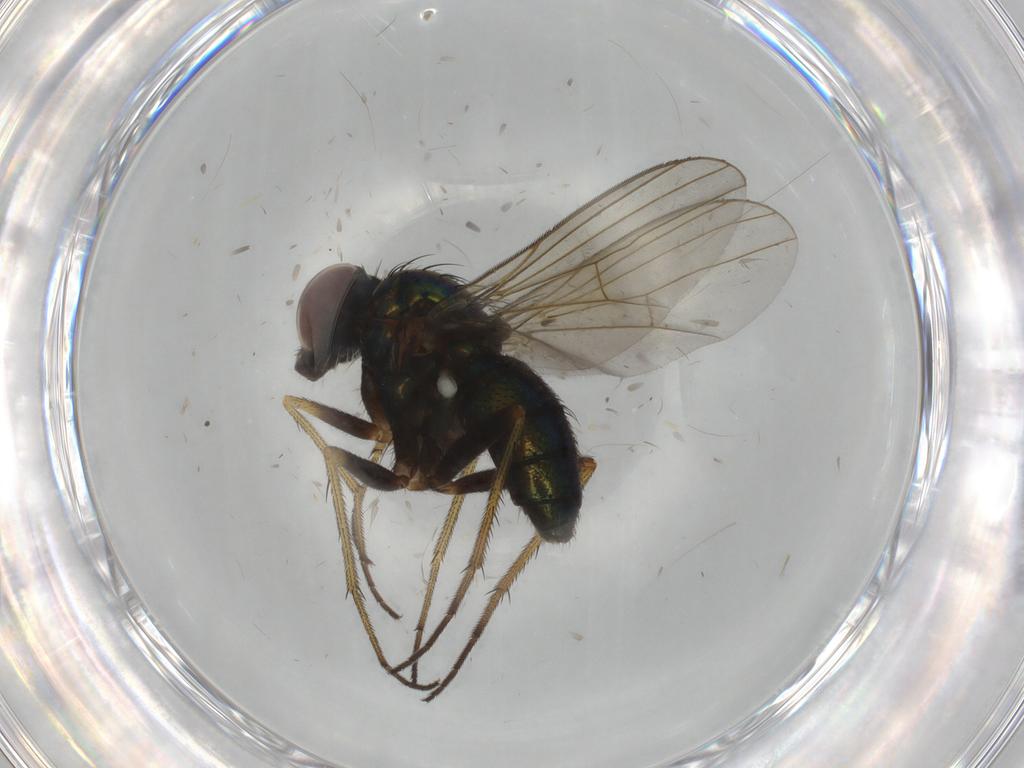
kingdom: Animalia
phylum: Arthropoda
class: Insecta
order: Diptera
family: Dolichopodidae
